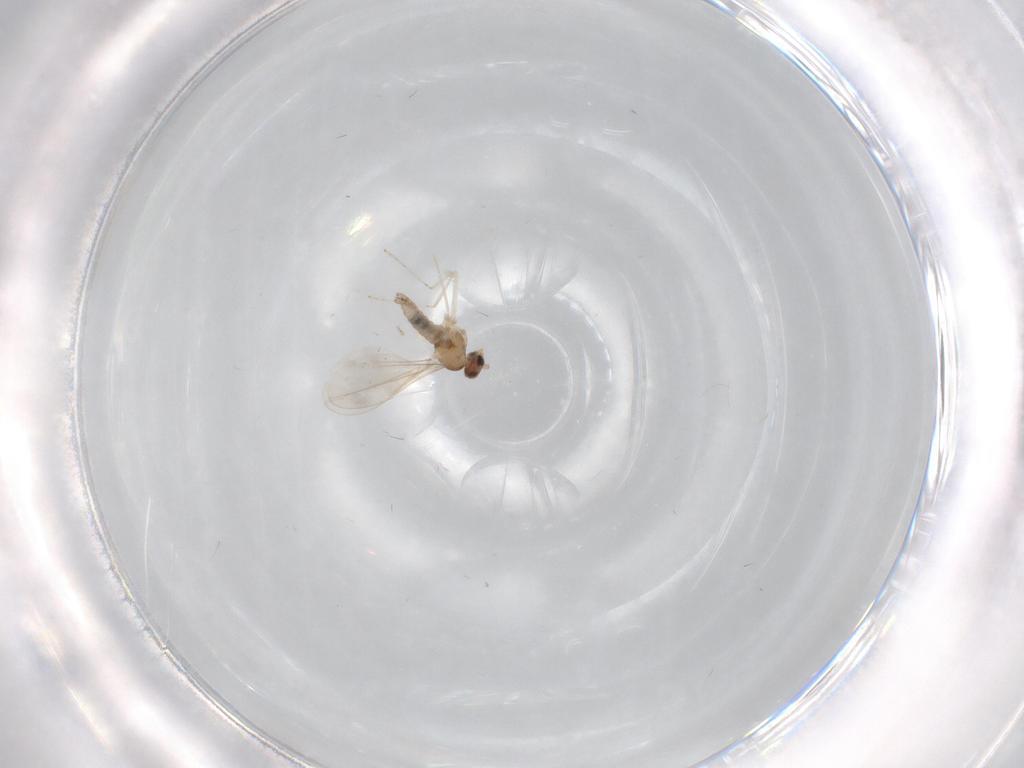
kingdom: Animalia
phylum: Arthropoda
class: Insecta
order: Diptera
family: Cecidomyiidae
